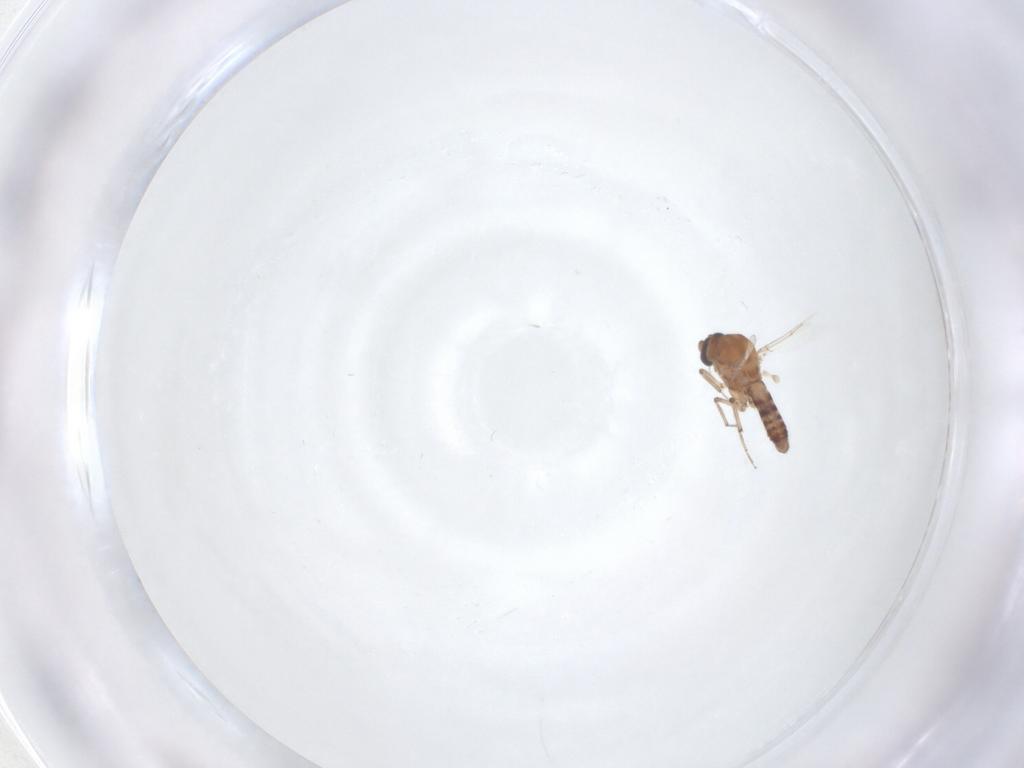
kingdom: Animalia
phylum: Arthropoda
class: Insecta
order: Diptera
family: Ceratopogonidae
